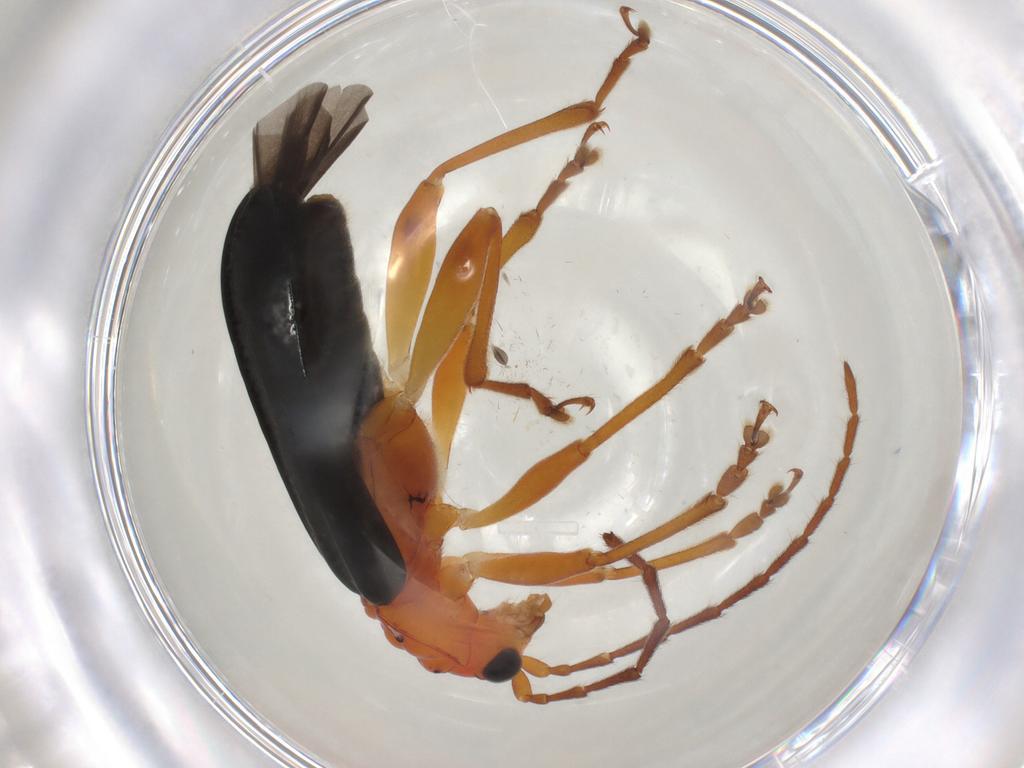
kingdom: Animalia
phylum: Arthropoda
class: Insecta
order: Coleoptera
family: Chrysomelidae
